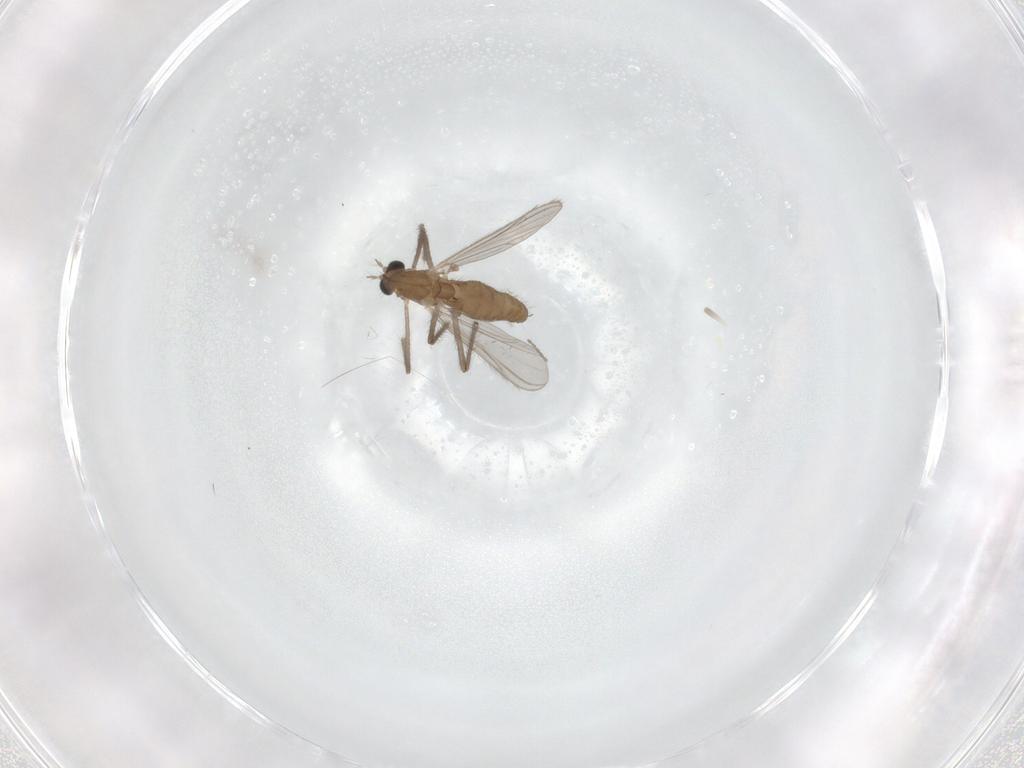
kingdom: Animalia
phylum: Arthropoda
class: Insecta
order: Diptera
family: Chironomidae
